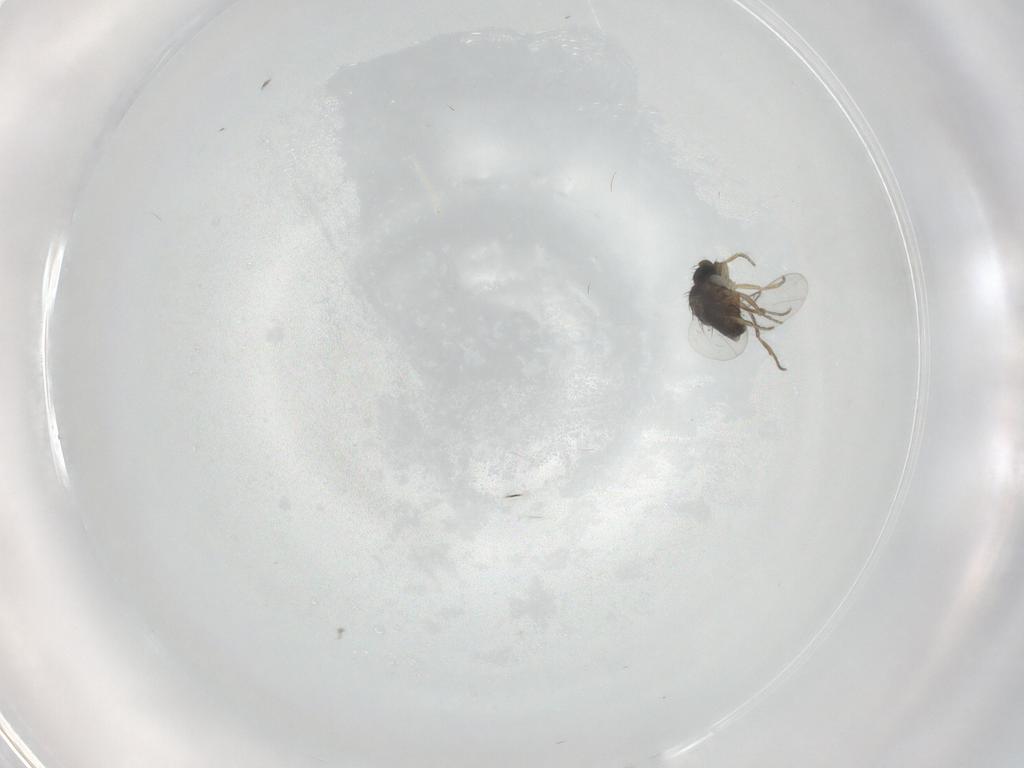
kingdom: Animalia
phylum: Arthropoda
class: Insecta
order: Diptera
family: Phoridae
